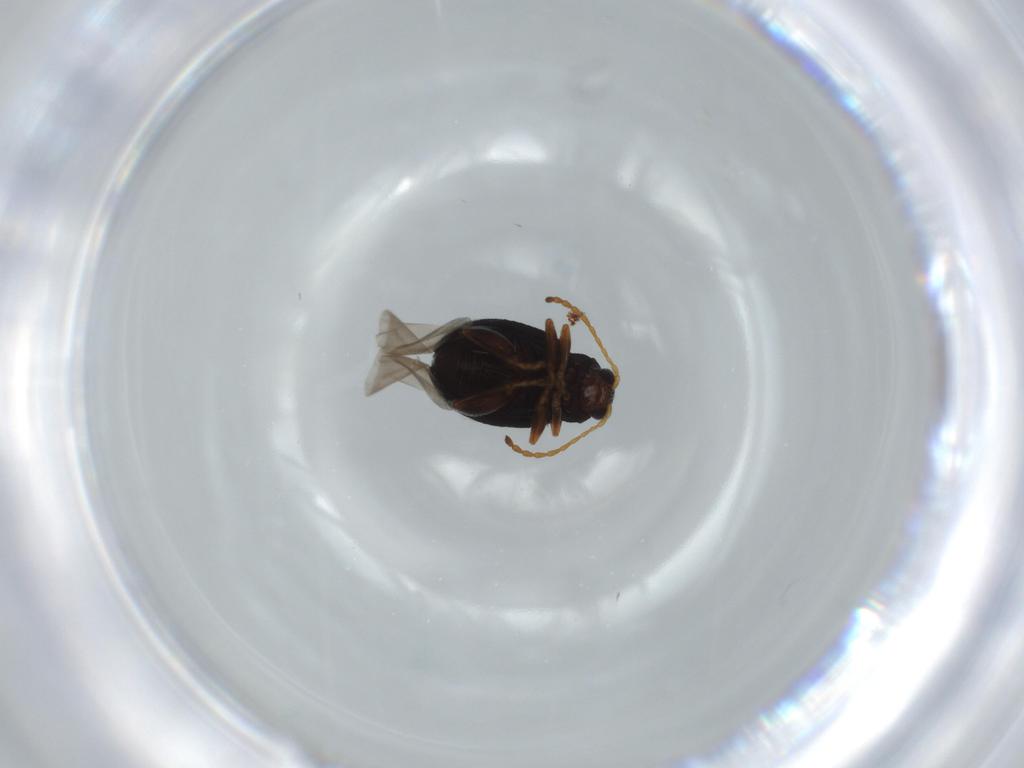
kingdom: Animalia
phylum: Arthropoda
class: Insecta
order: Coleoptera
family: Chrysomelidae
